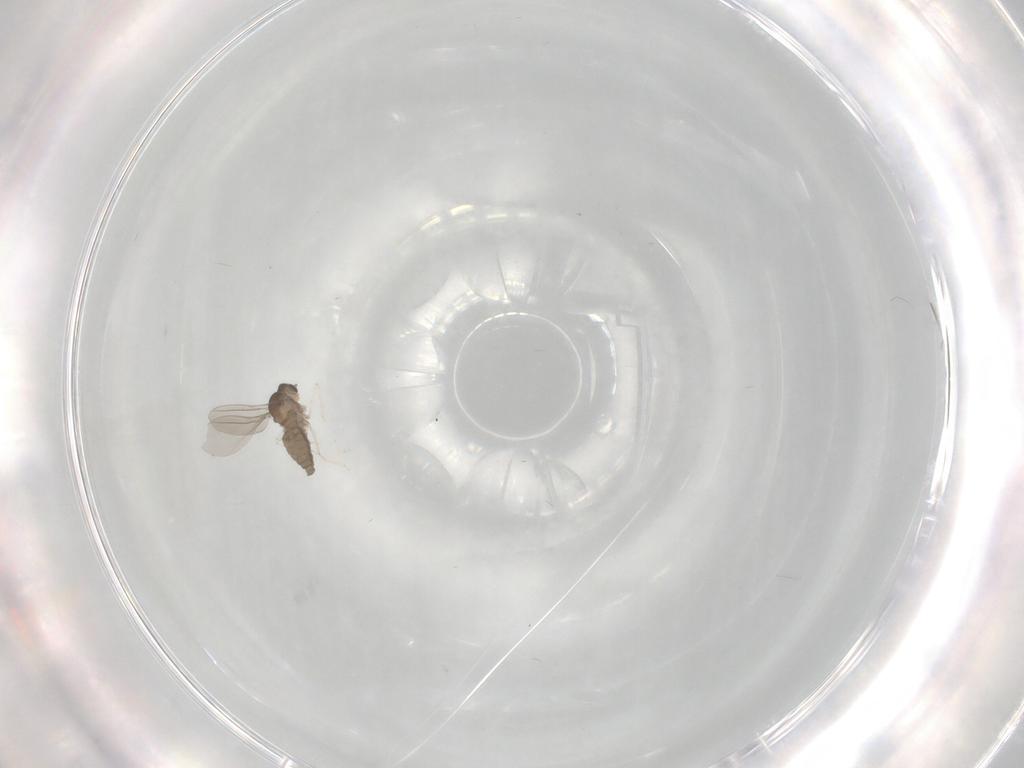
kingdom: Animalia
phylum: Arthropoda
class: Insecta
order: Diptera
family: Cecidomyiidae
